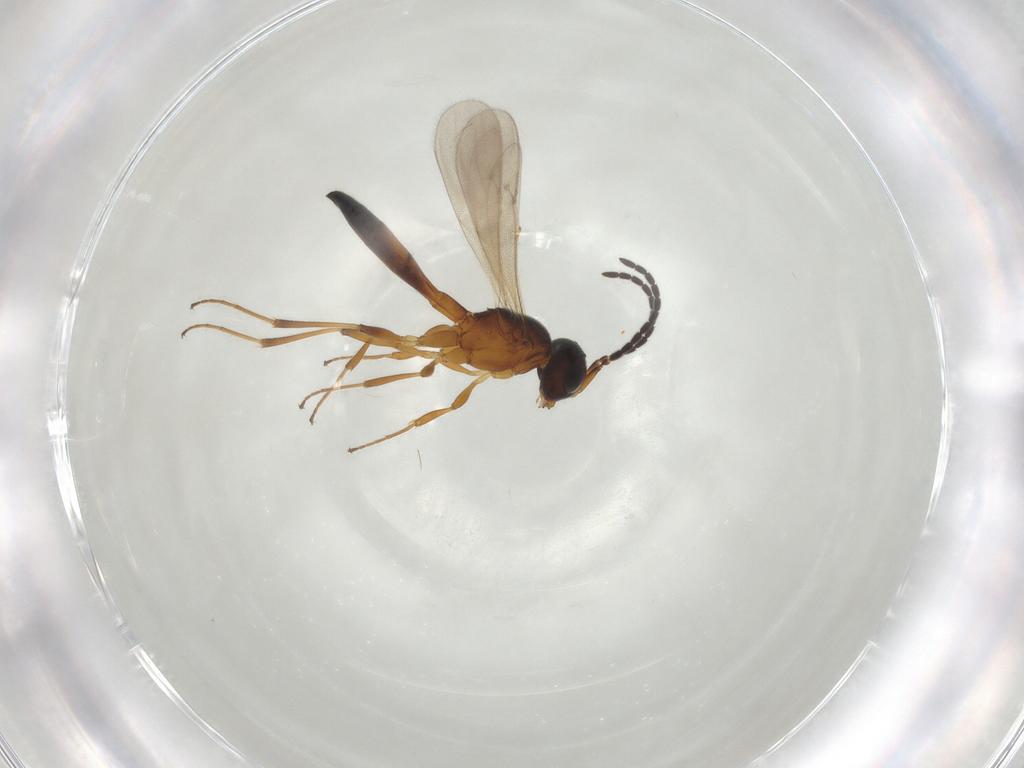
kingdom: Animalia
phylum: Arthropoda
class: Insecta
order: Hymenoptera
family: Scelionidae
